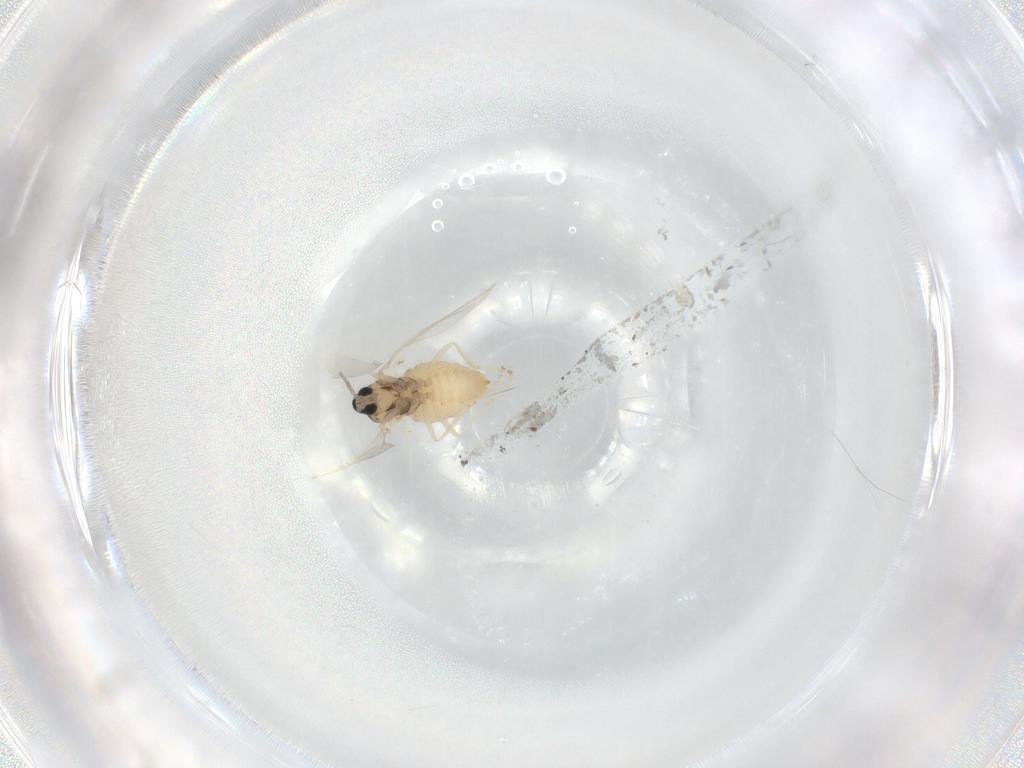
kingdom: Animalia
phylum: Arthropoda
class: Insecta
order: Diptera
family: Cecidomyiidae
